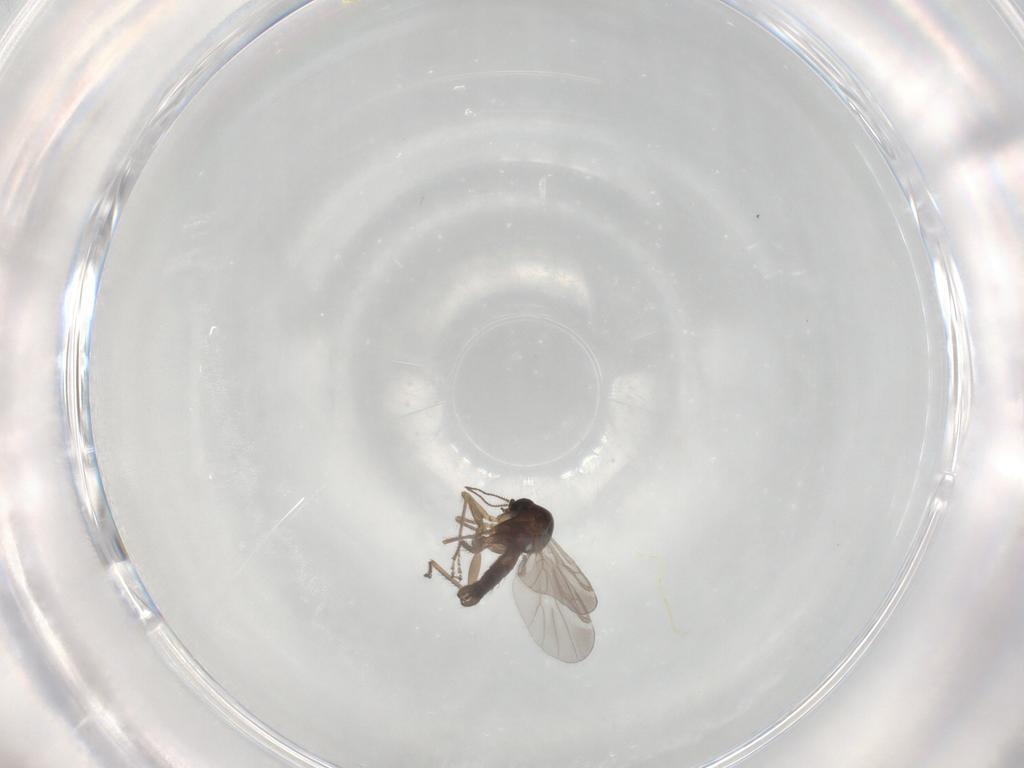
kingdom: Animalia
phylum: Arthropoda
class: Insecta
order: Diptera
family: Ceratopogonidae
